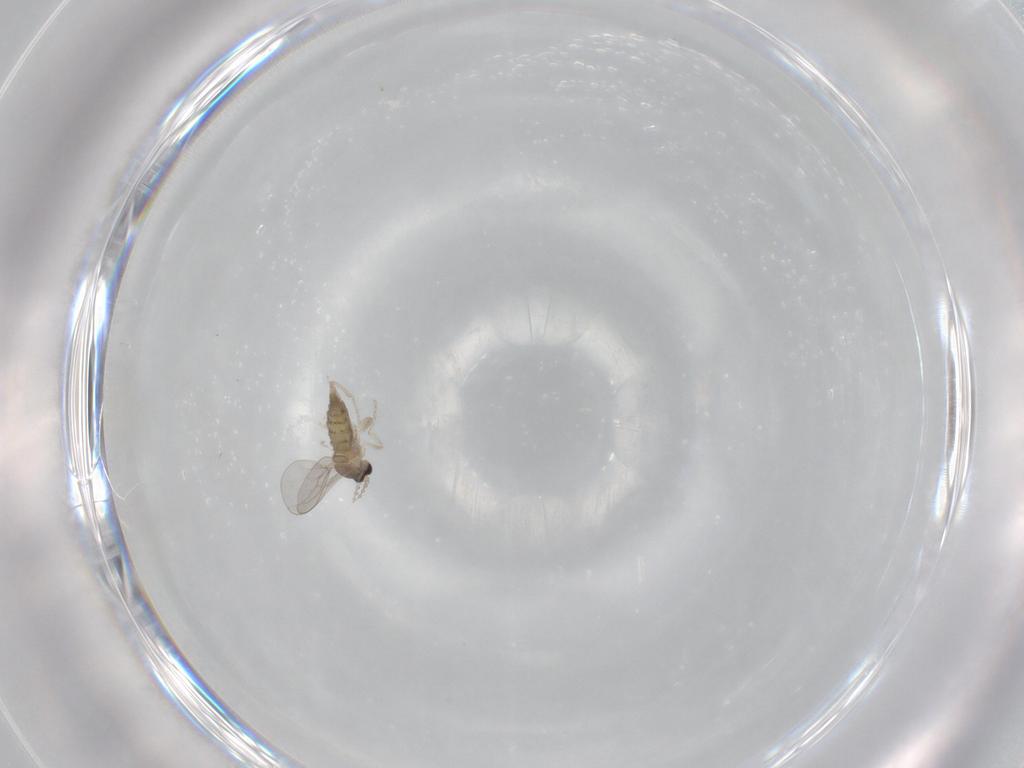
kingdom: Animalia
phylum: Arthropoda
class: Insecta
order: Diptera
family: Cecidomyiidae
